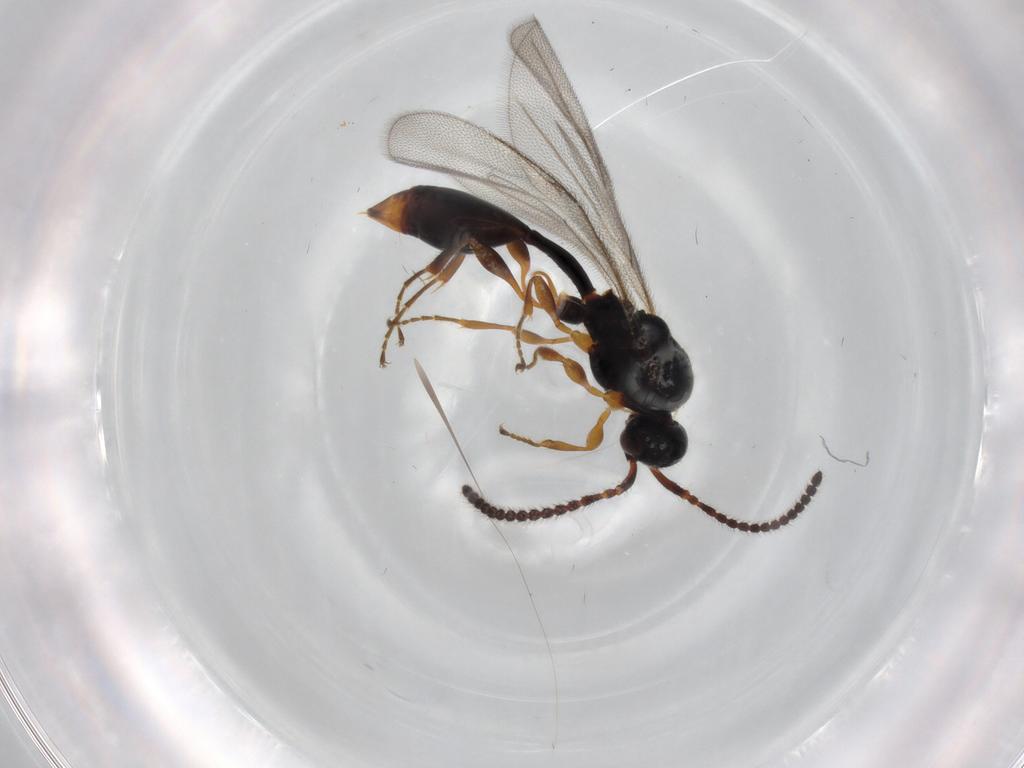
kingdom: Animalia
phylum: Arthropoda
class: Insecta
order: Hymenoptera
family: Diapriidae
